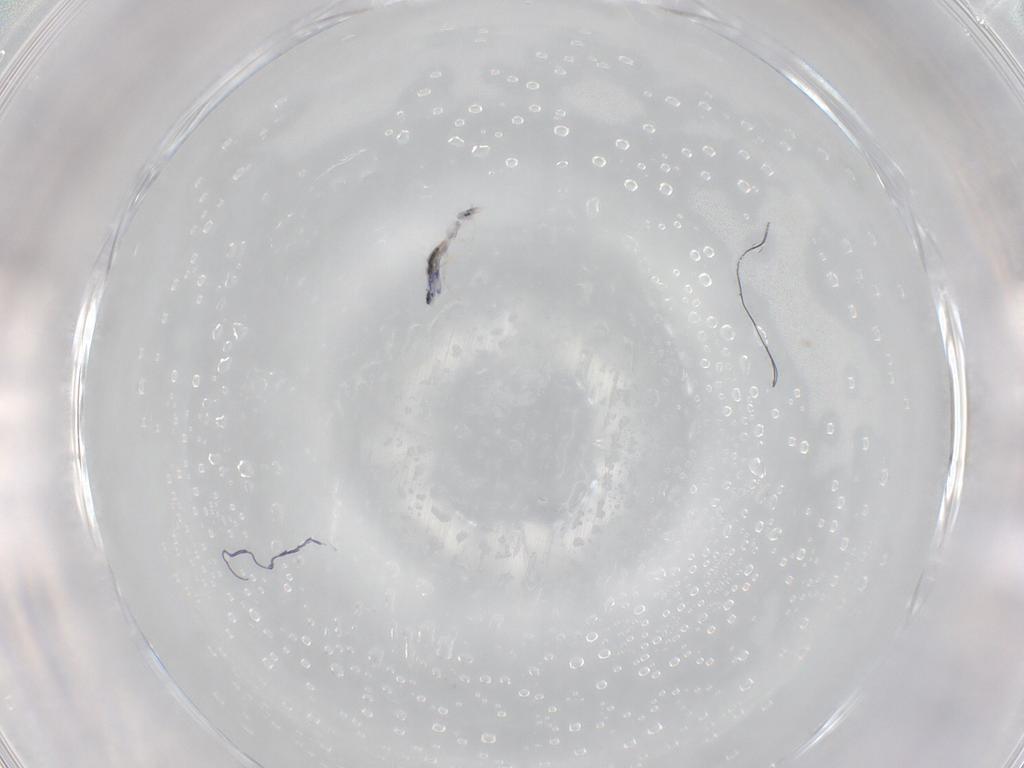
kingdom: Animalia
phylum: Arthropoda
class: Collembola
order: Entomobryomorpha
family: Entomobryidae
